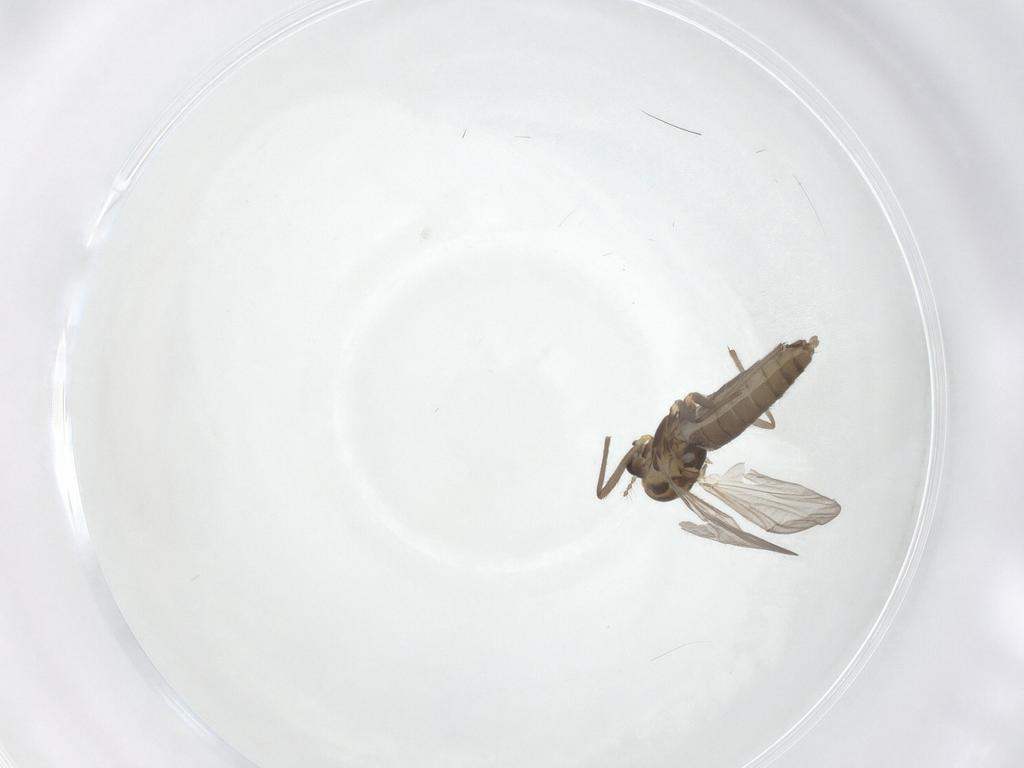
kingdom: Animalia
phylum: Arthropoda
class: Insecta
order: Diptera
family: Chironomidae
